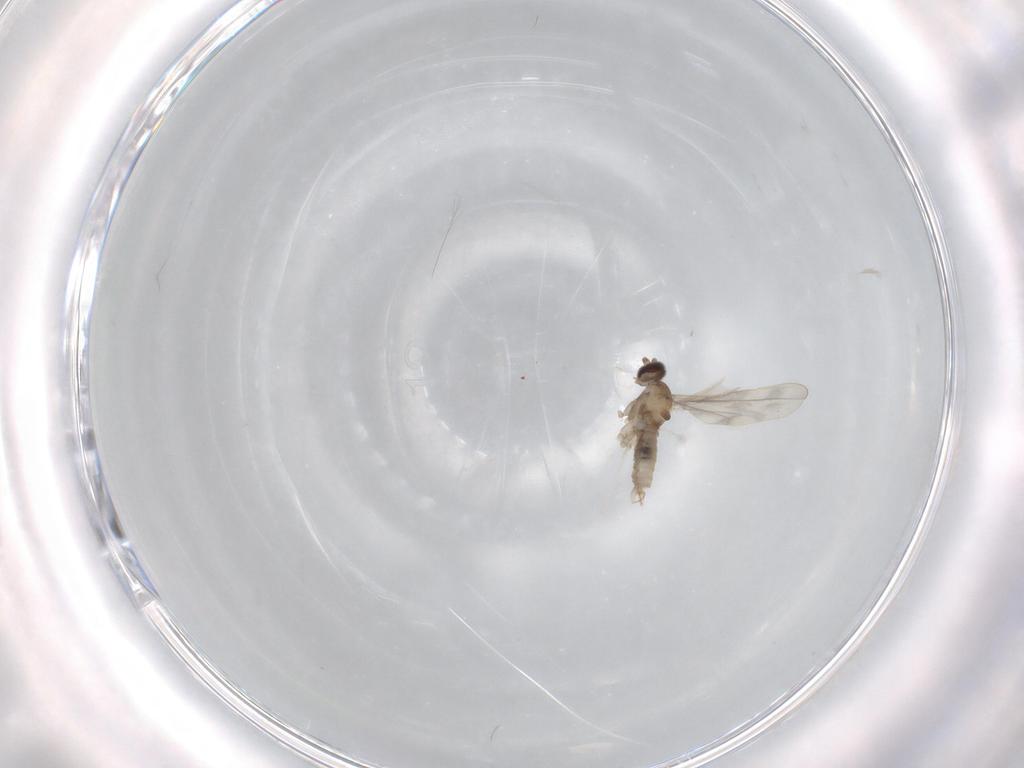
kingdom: Animalia
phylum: Arthropoda
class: Insecta
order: Diptera
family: Cecidomyiidae
